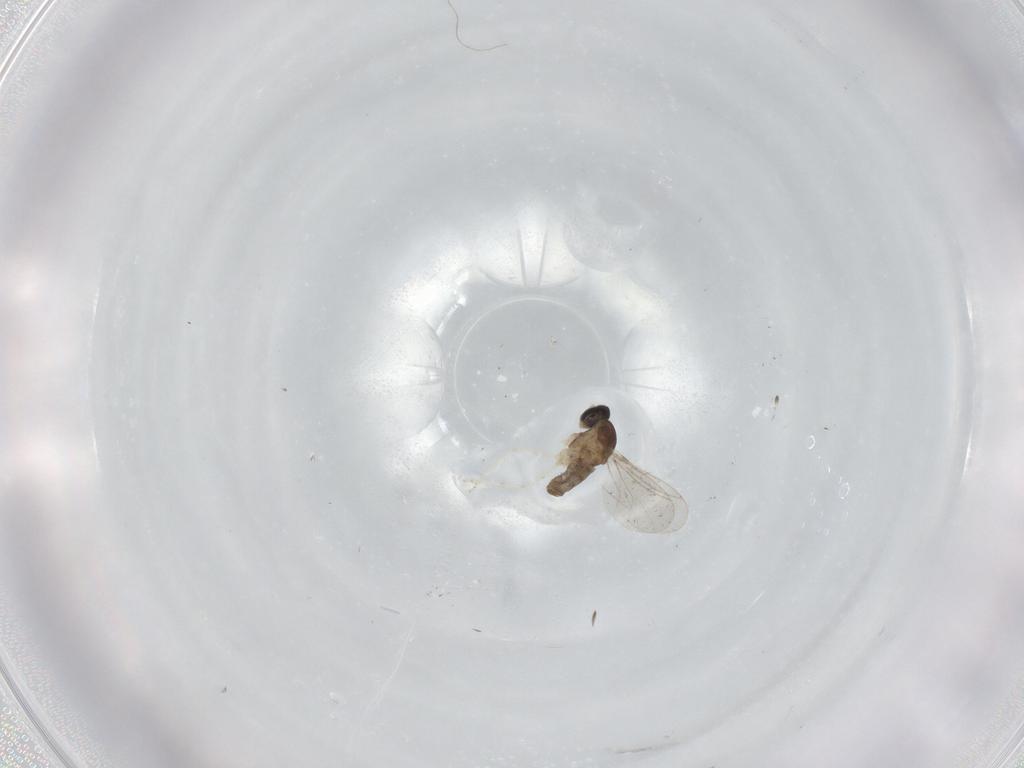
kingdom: Animalia
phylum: Arthropoda
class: Insecta
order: Diptera
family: Cecidomyiidae
